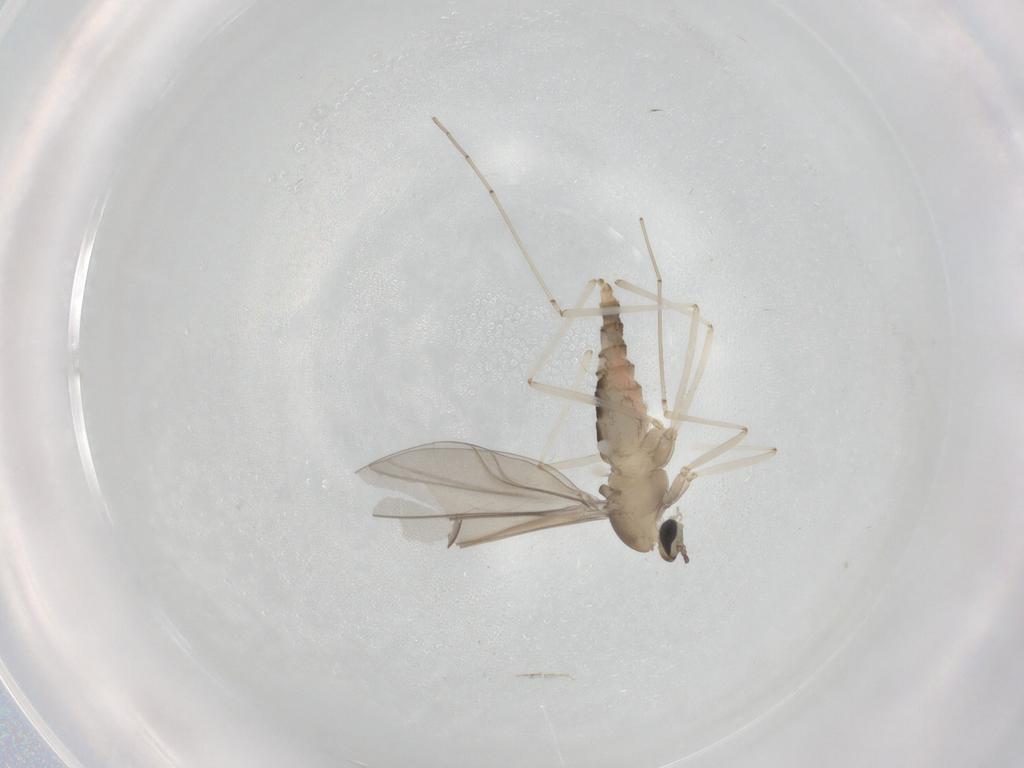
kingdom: Animalia
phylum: Arthropoda
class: Insecta
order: Diptera
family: Cecidomyiidae
